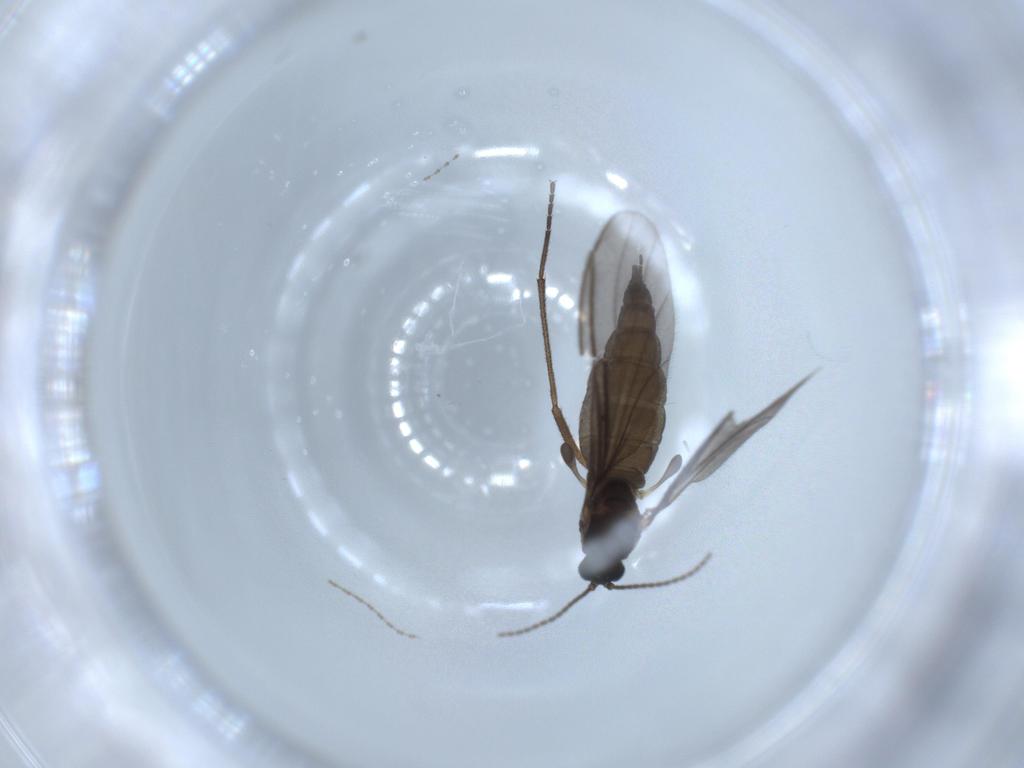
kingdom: Animalia
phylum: Arthropoda
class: Insecta
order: Diptera
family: Sciaridae
